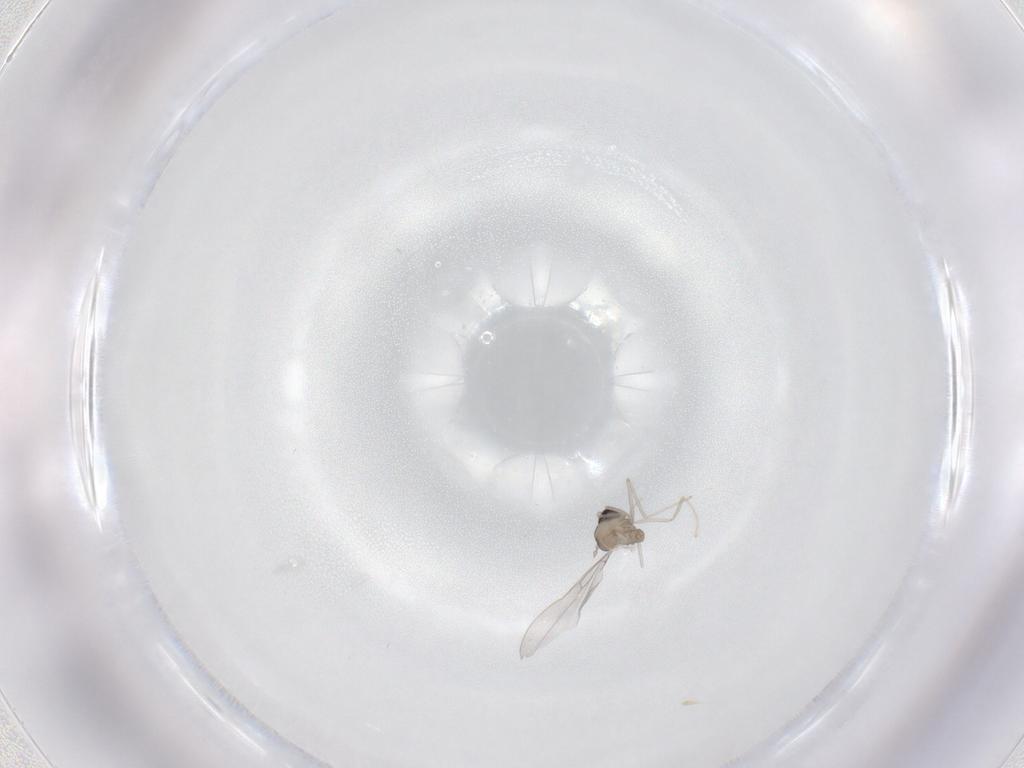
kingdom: Animalia
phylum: Arthropoda
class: Insecta
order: Diptera
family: Cecidomyiidae
